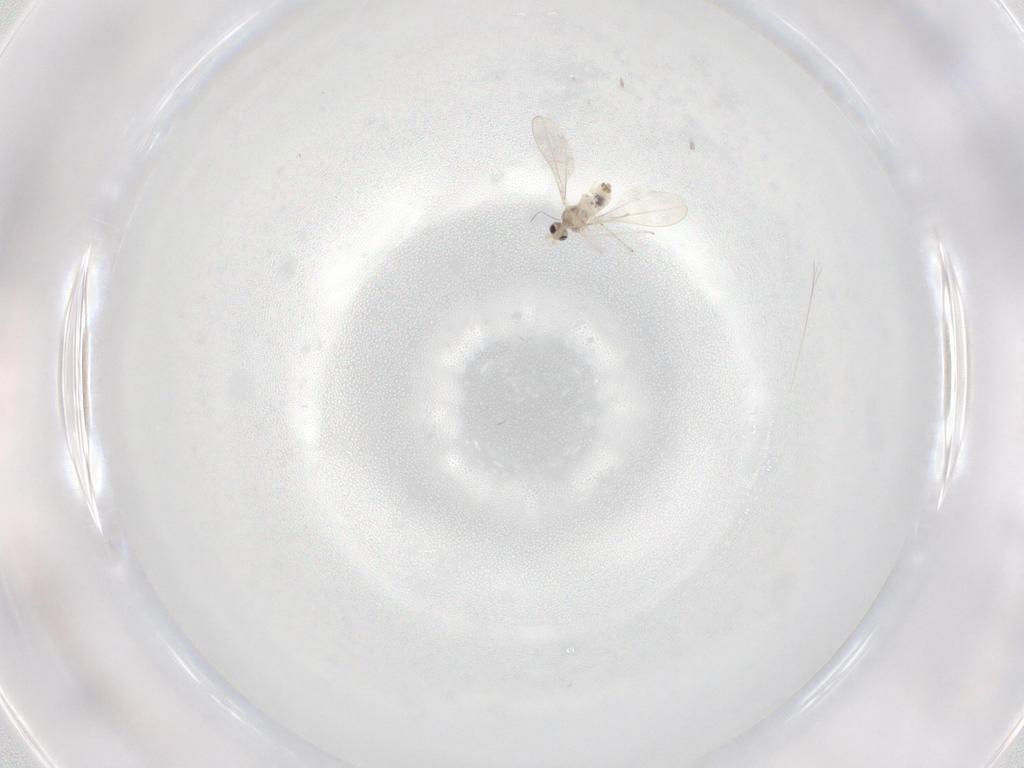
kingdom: Animalia
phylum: Arthropoda
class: Insecta
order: Diptera
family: Cecidomyiidae
